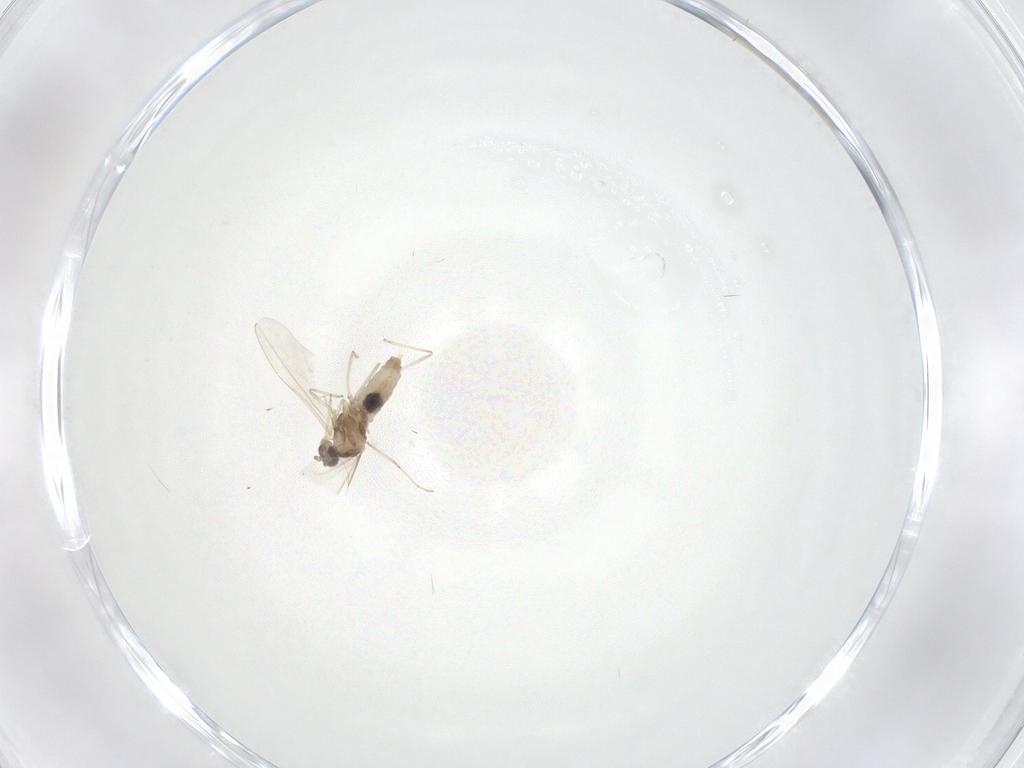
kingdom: Animalia
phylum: Arthropoda
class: Insecta
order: Diptera
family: Cecidomyiidae
